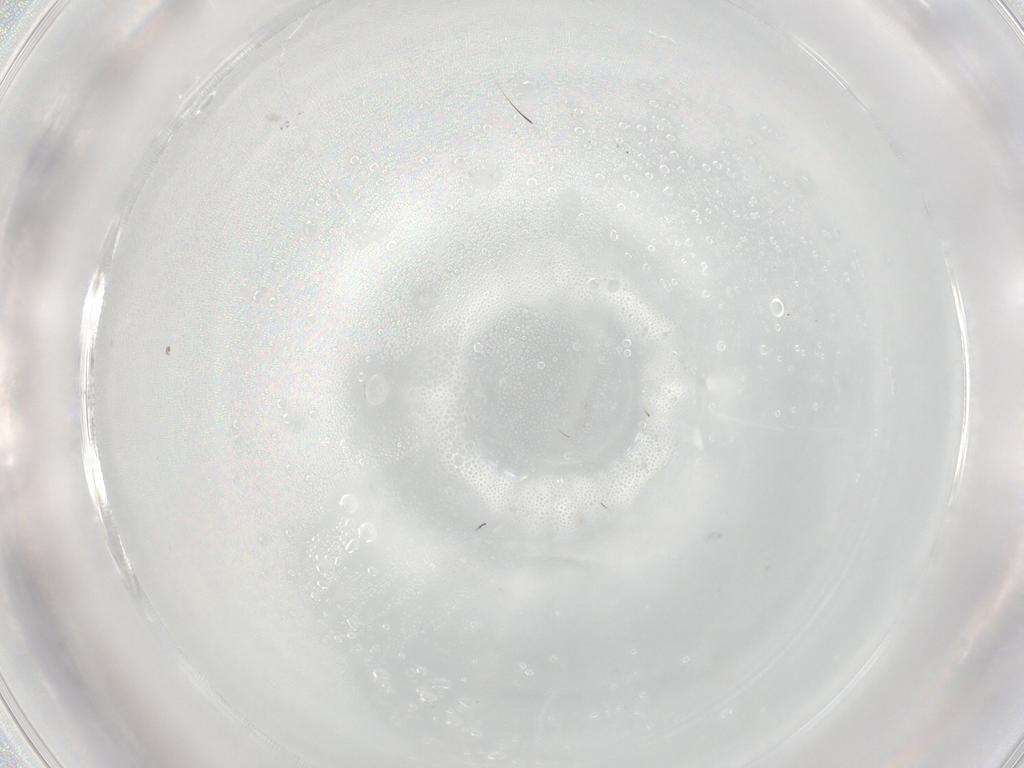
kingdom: Animalia
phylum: Arthropoda
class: Insecta
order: Diptera
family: Cecidomyiidae
